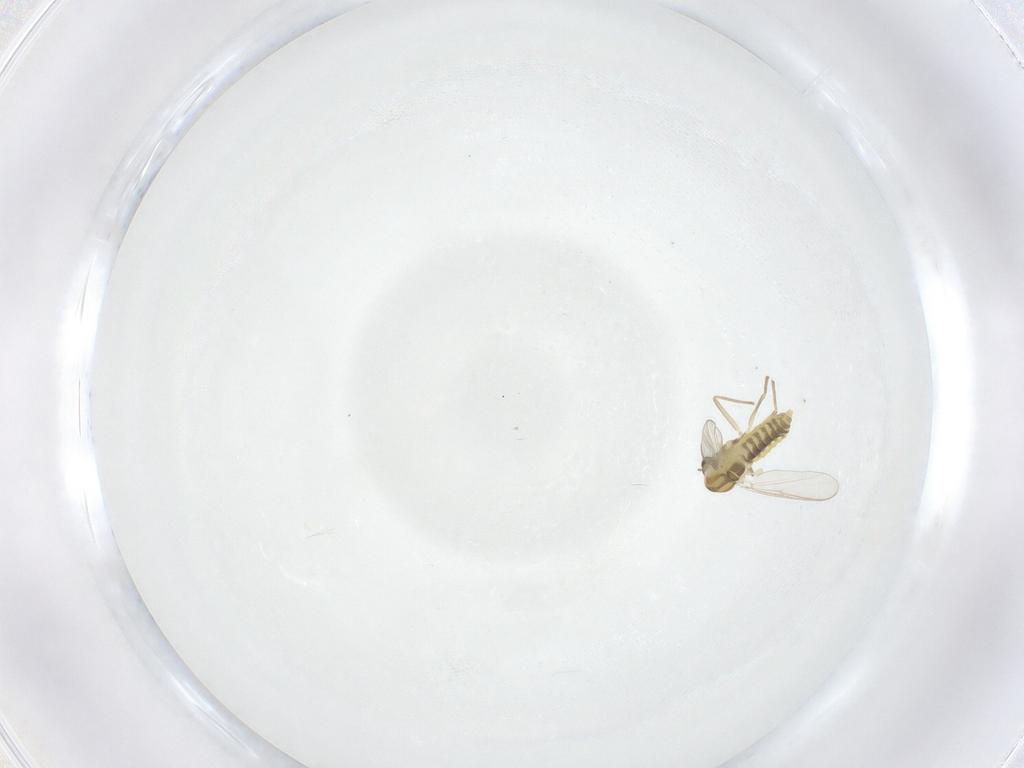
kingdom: Animalia
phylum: Arthropoda
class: Insecta
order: Diptera
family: Chironomidae
